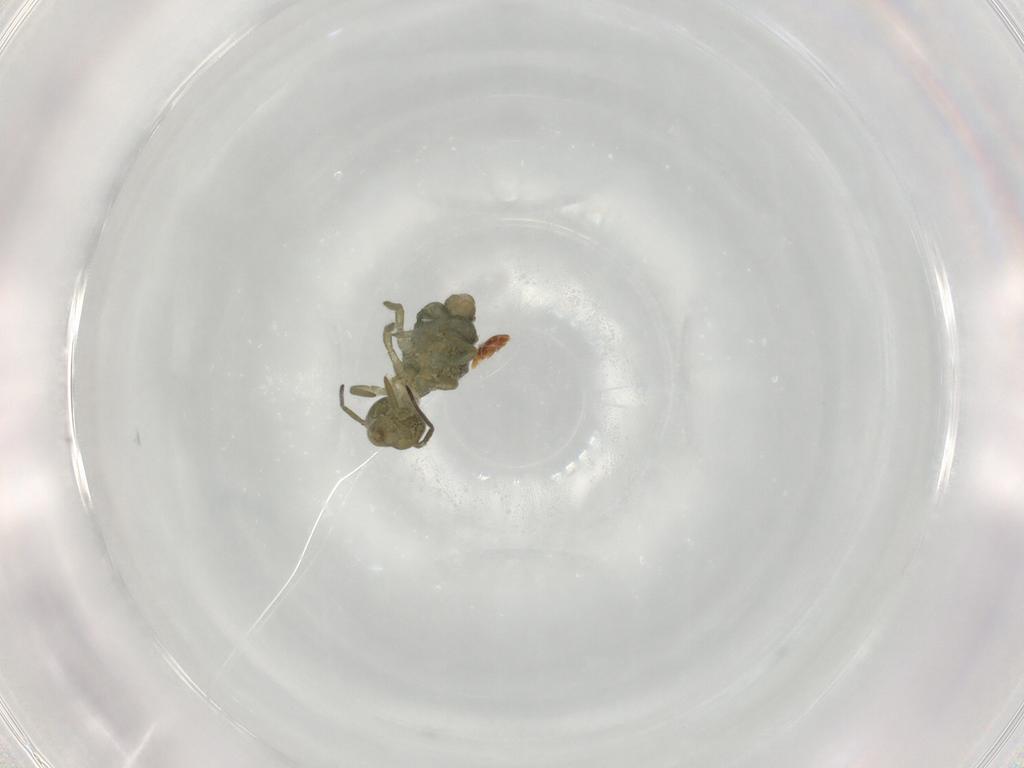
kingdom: Animalia
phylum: Arthropoda
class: Collembola
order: Symphypleona
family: Sminthuridae
